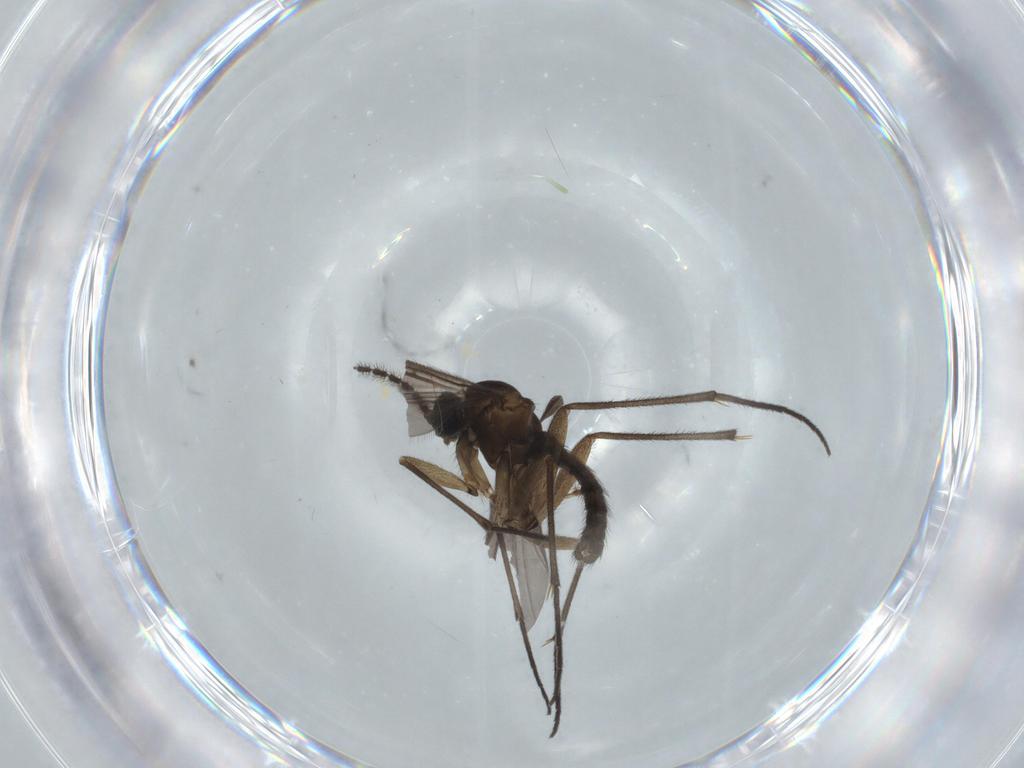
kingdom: Animalia
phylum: Arthropoda
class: Insecta
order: Diptera
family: Sciaridae
